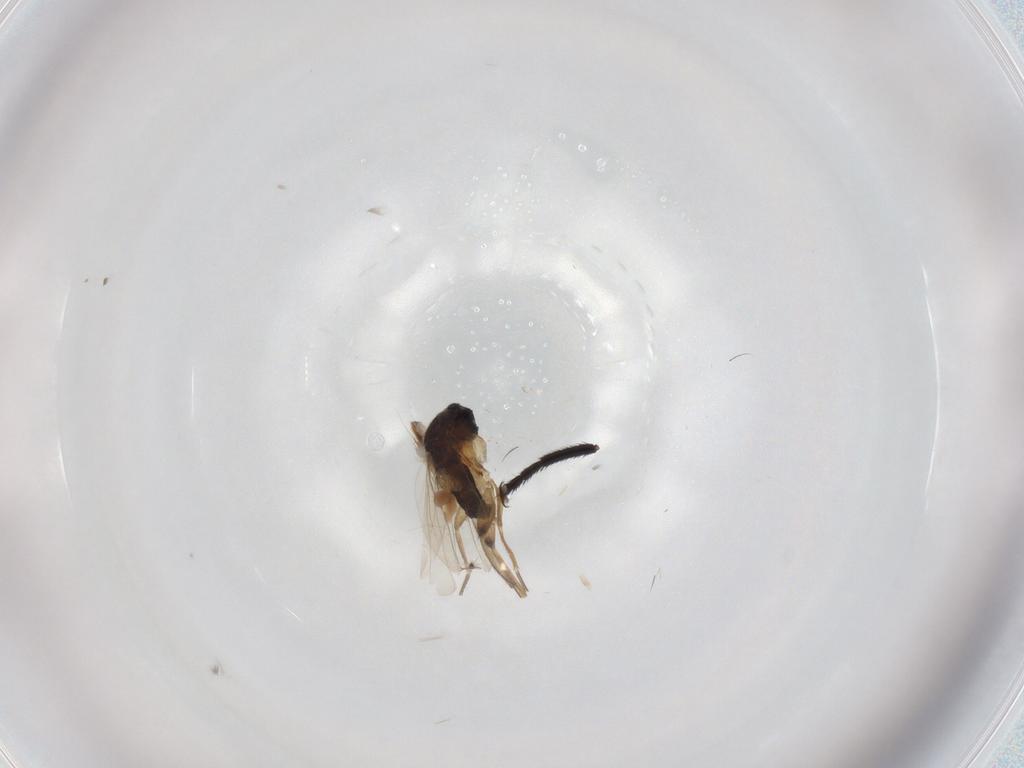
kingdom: Animalia
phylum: Arthropoda
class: Insecta
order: Diptera
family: Phoridae
